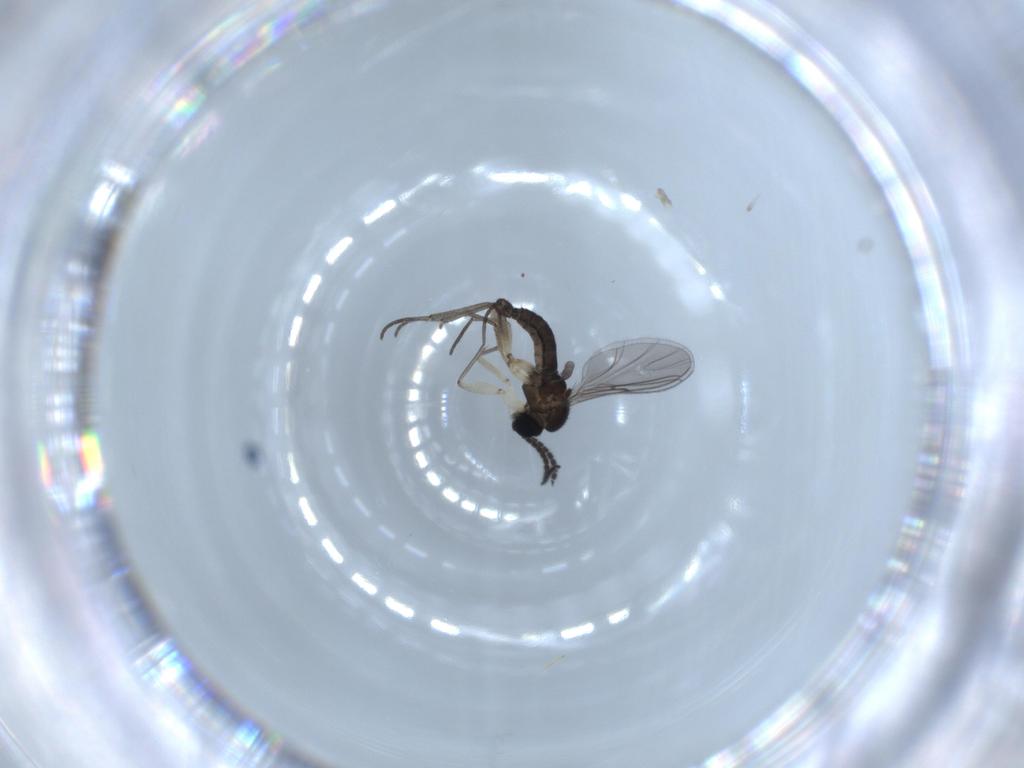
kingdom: Animalia
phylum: Arthropoda
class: Insecta
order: Diptera
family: Sciaridae
